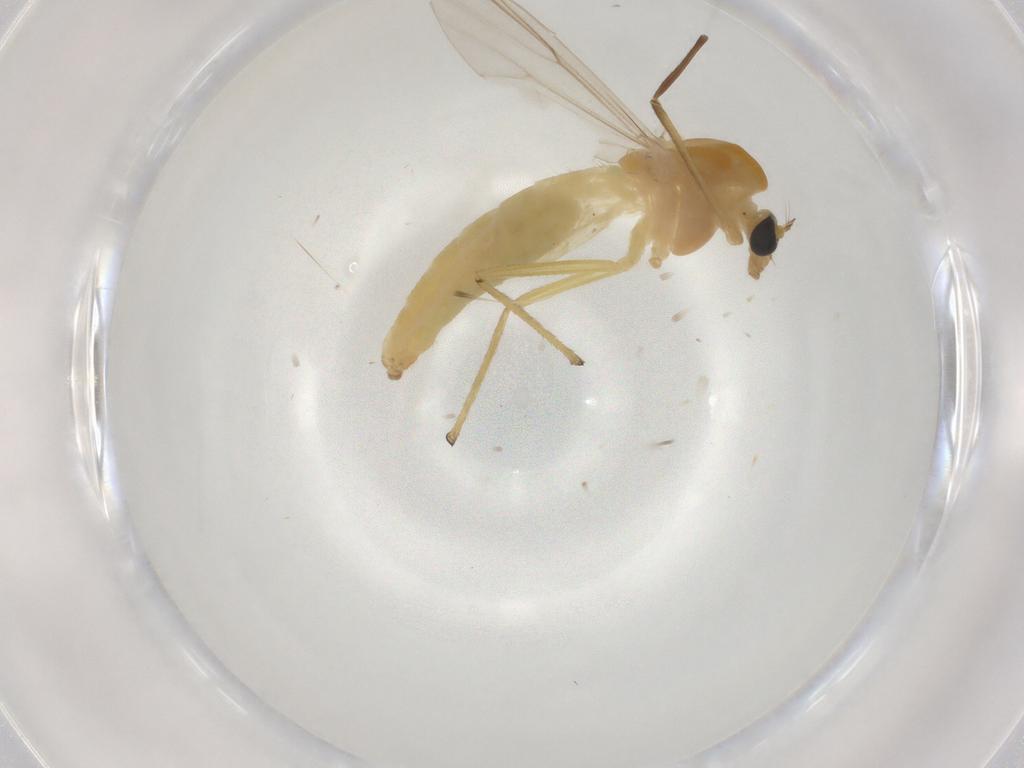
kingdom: Animalia
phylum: Arthropoda
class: Insecta
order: Diptera
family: Chironomidae
